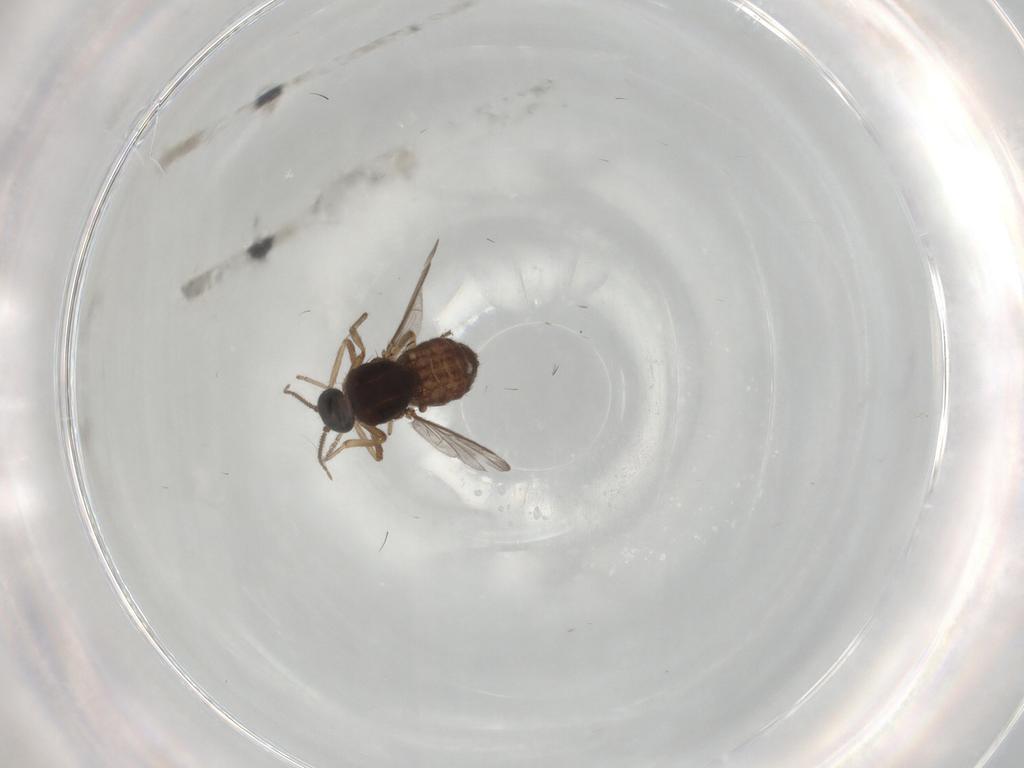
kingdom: Animalia
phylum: Arthropoda
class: Insecta
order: Diptera
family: Ceratopogonidae
